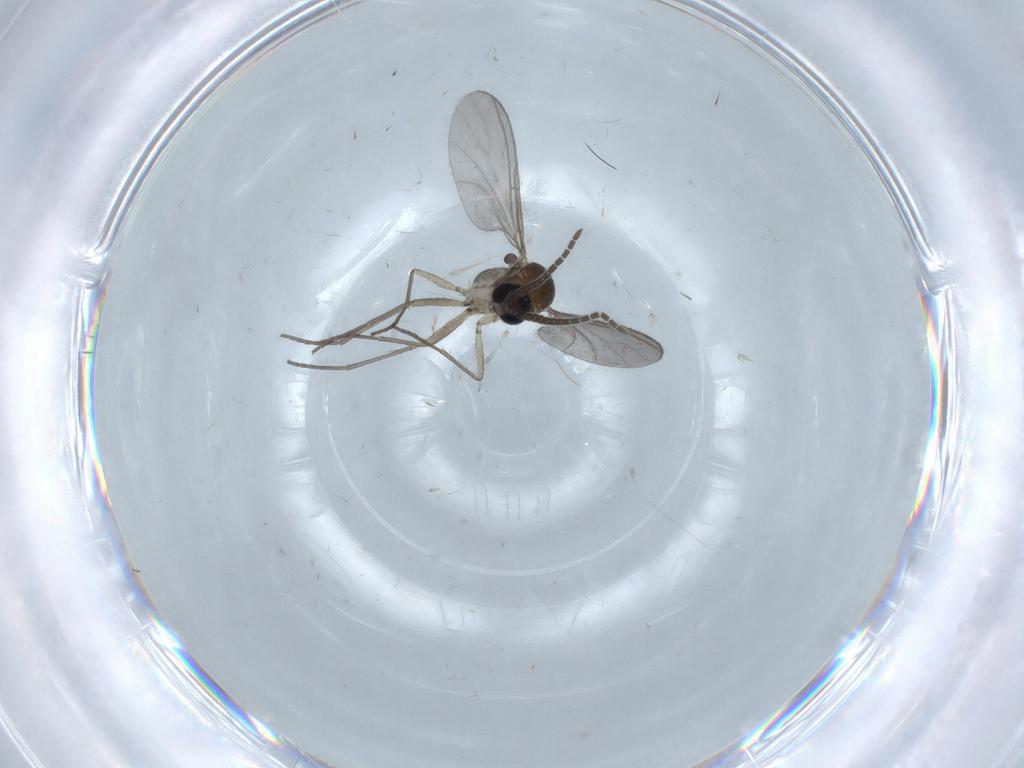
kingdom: Animalia
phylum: Arthropoda
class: Insecta
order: Diptera
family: Sciaridae
